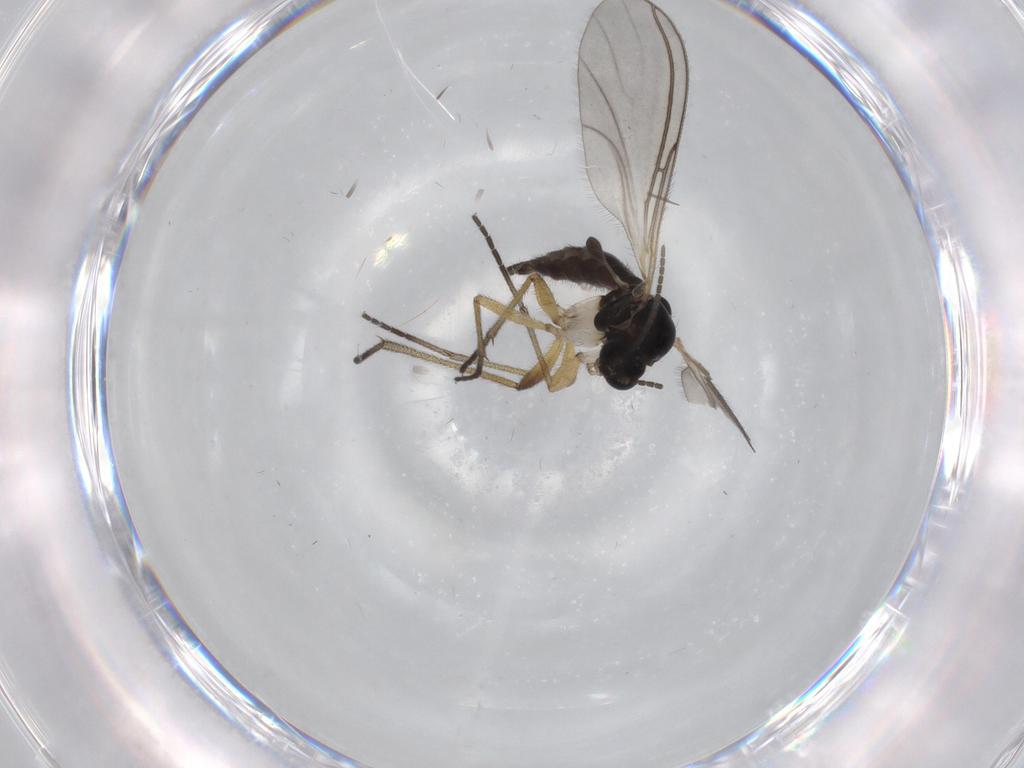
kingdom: Animalia
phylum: Arthropoda
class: Insecta
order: Diptera
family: Sciaridae
